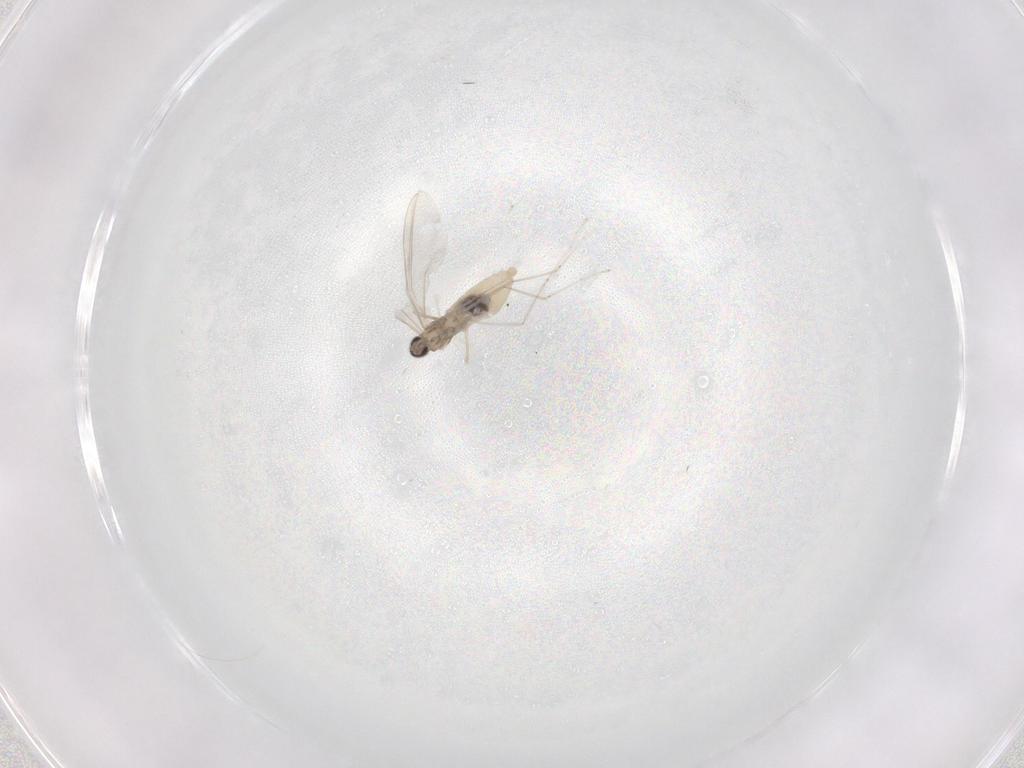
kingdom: Animalia
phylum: Arthropoda
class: Insecta
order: Diptera
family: Cecidomyiidae
